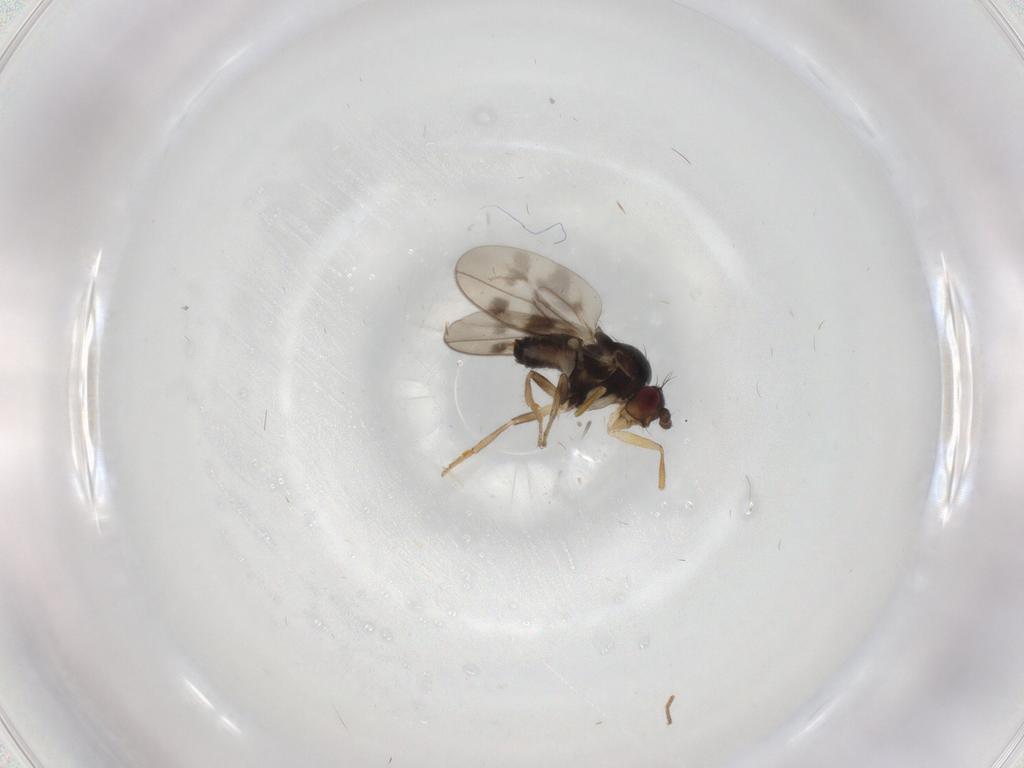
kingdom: Animalia
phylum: Arthropoda
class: Insecta
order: Diptera
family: Sphaeroceridae
